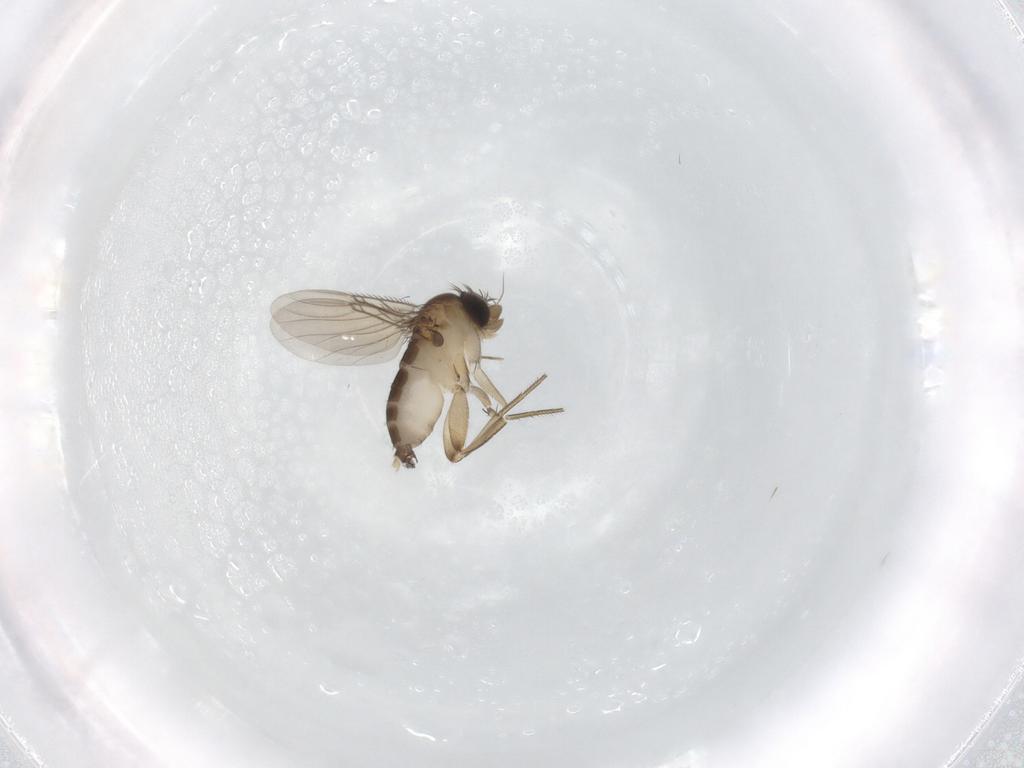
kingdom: Animalia
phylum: Arthropoda
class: Insecta
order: Diptera
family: Phoridae
